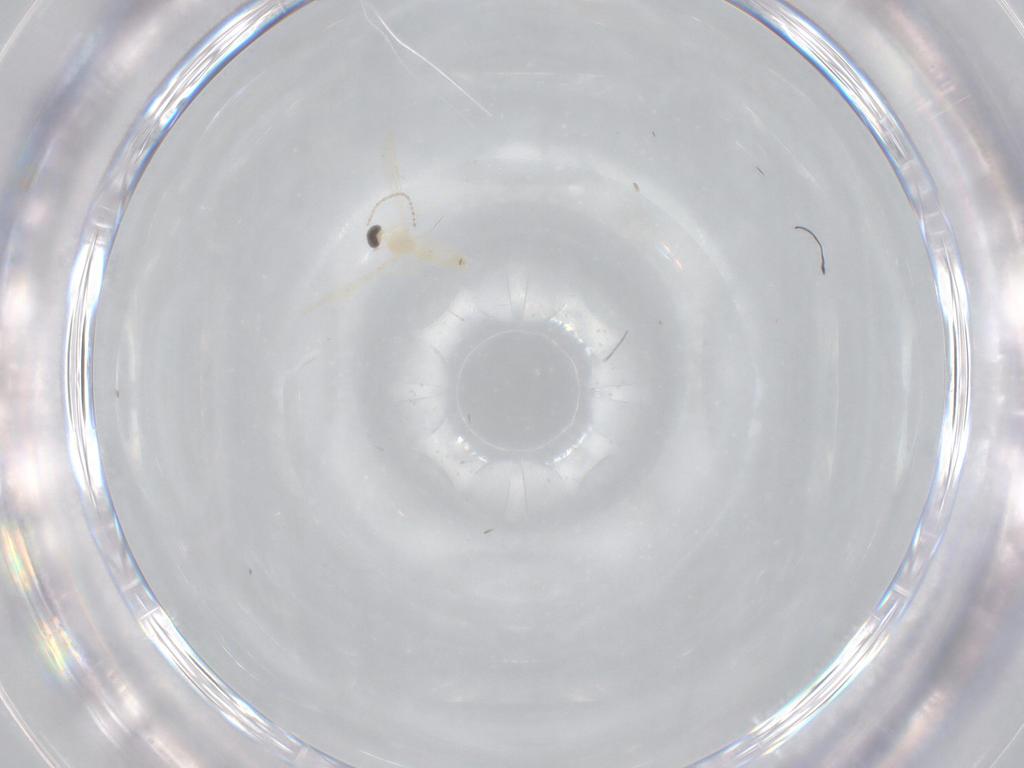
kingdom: Animalia
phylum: Arthropoda
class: Insecta
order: Diptera
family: Cecidomyiidae
